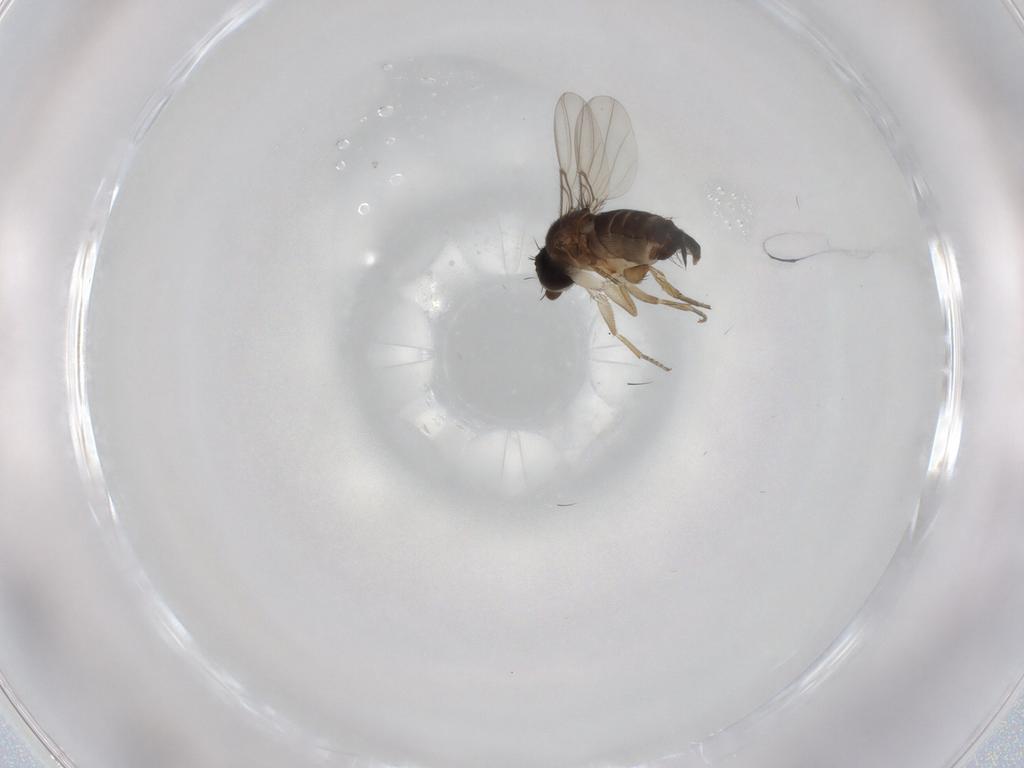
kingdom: Animalia
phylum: Arthropoda
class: Insecta
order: Diptera
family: Phoridae
